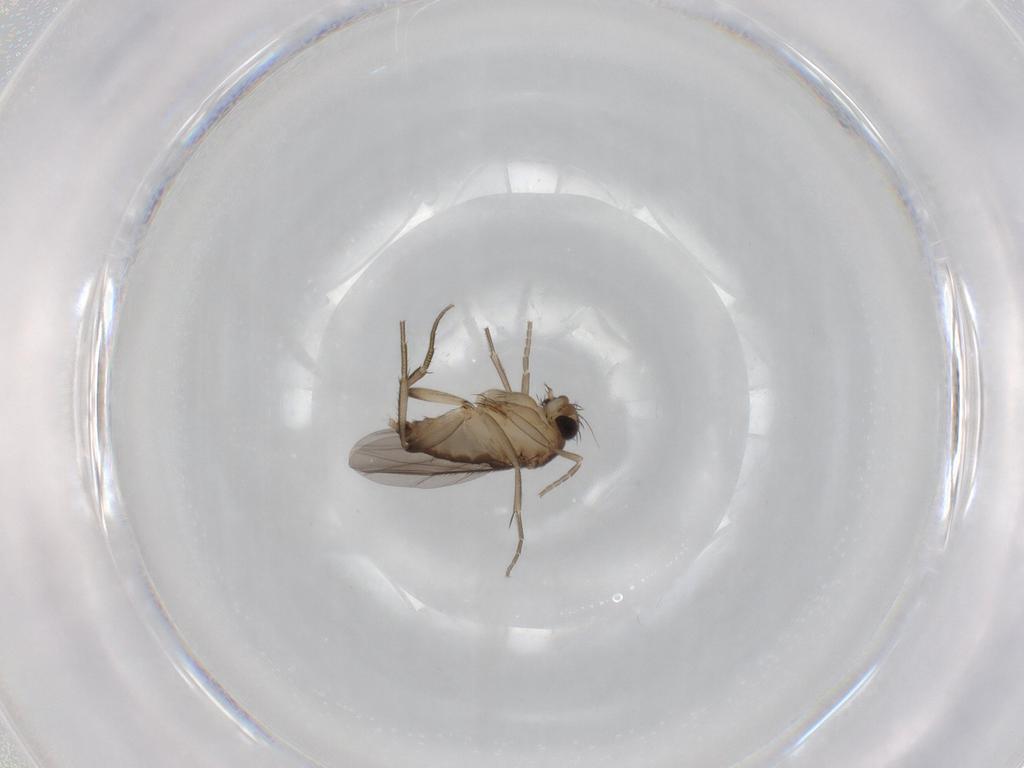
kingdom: Animalia
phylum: Arthropoda
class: Insecta
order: Diptera
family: Phoridae
